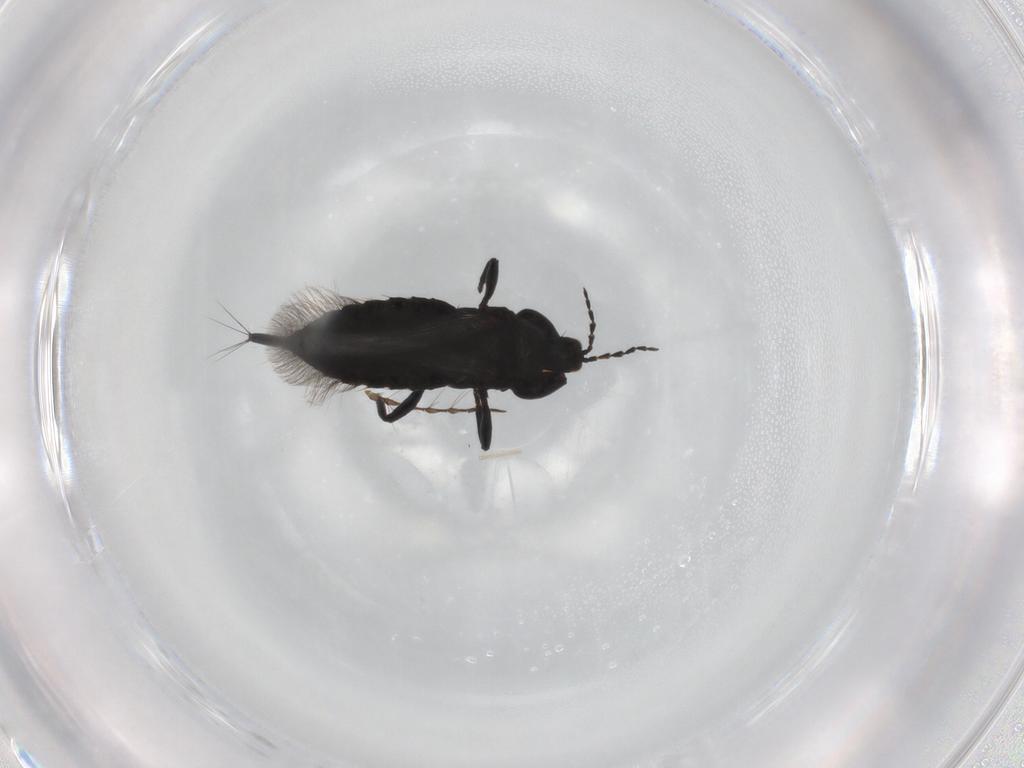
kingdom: Animalia
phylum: Arthropoda
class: Insecta
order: Thysanoptera
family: Phlaeothripidae
